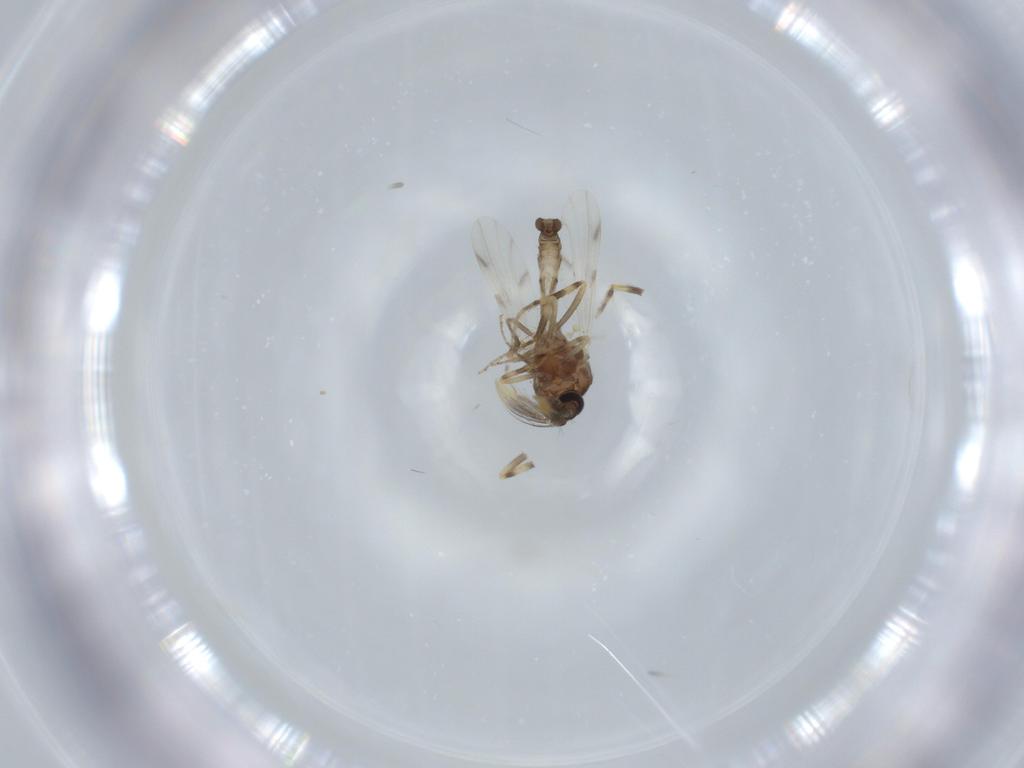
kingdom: Animalia
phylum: Arthropoda
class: Insecta
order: Diptera
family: Ceratopogonidae
